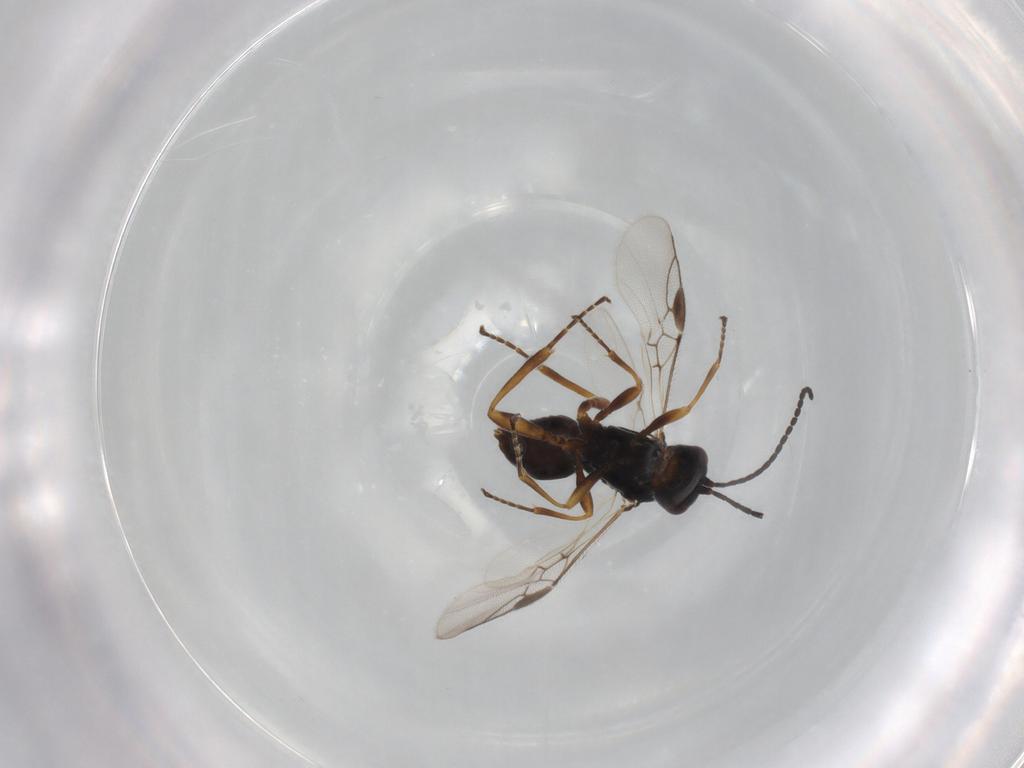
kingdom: Animalia
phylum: Arthropoda
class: Insecta
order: Hymenoptera
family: Braconidae
